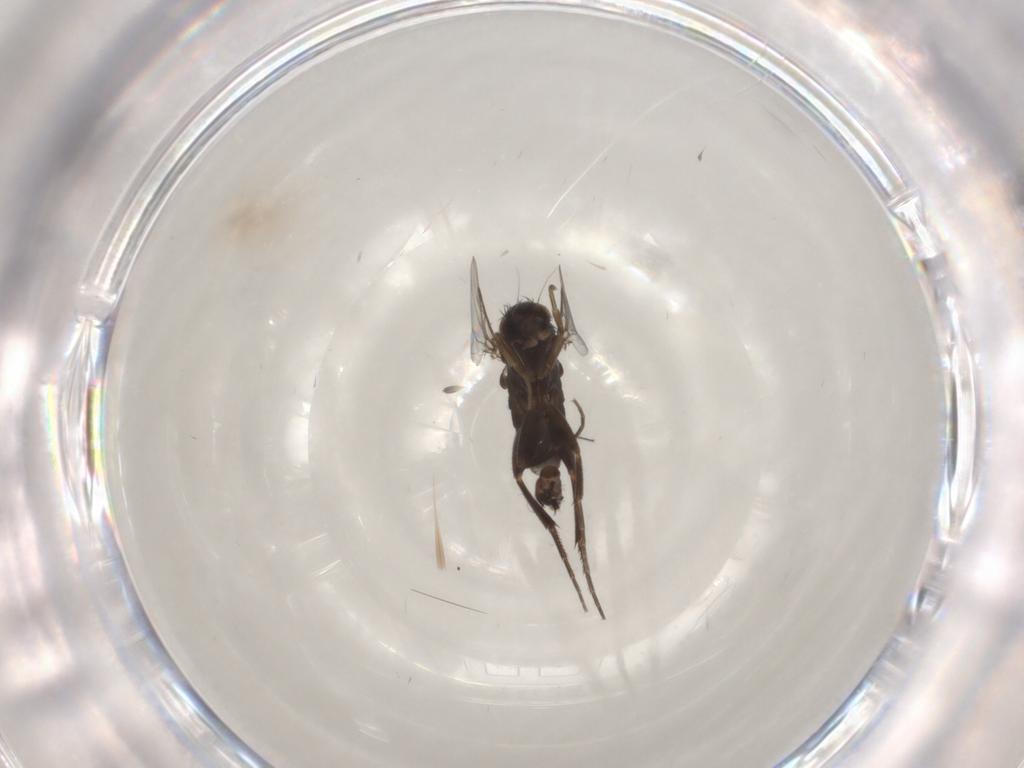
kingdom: Animalia
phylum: Arthropoda
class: Insecta
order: Diptera
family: Phoridae
